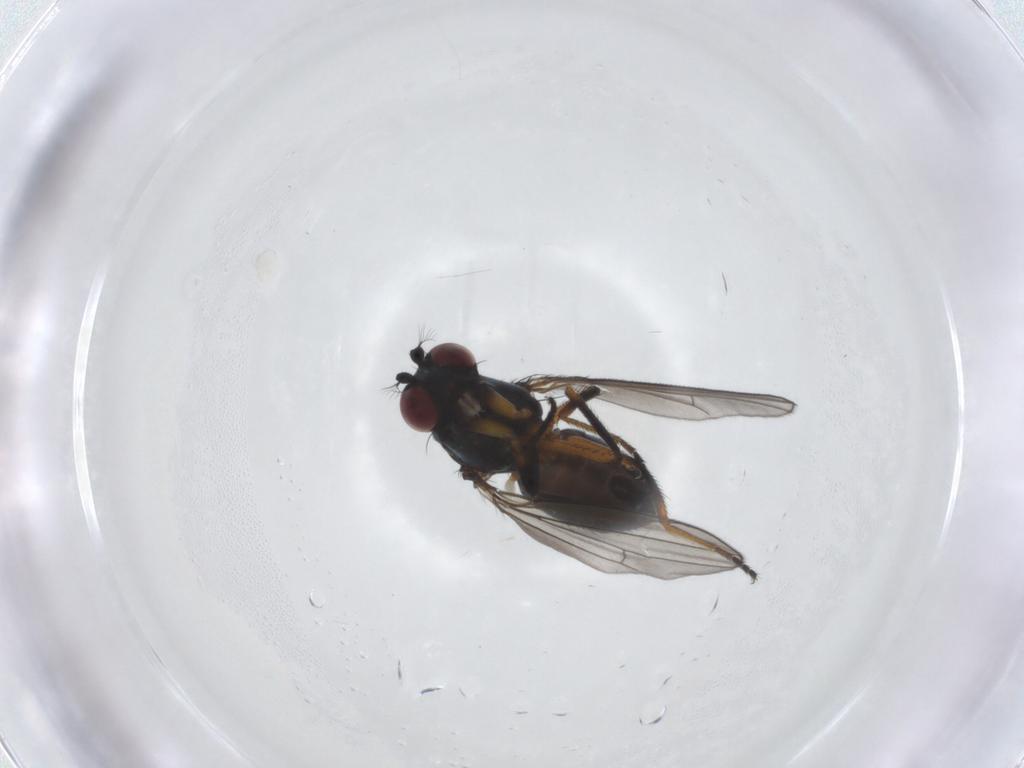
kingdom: Animalia
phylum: Arthropoda
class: Insecta
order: Diptera
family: Ephydridae
